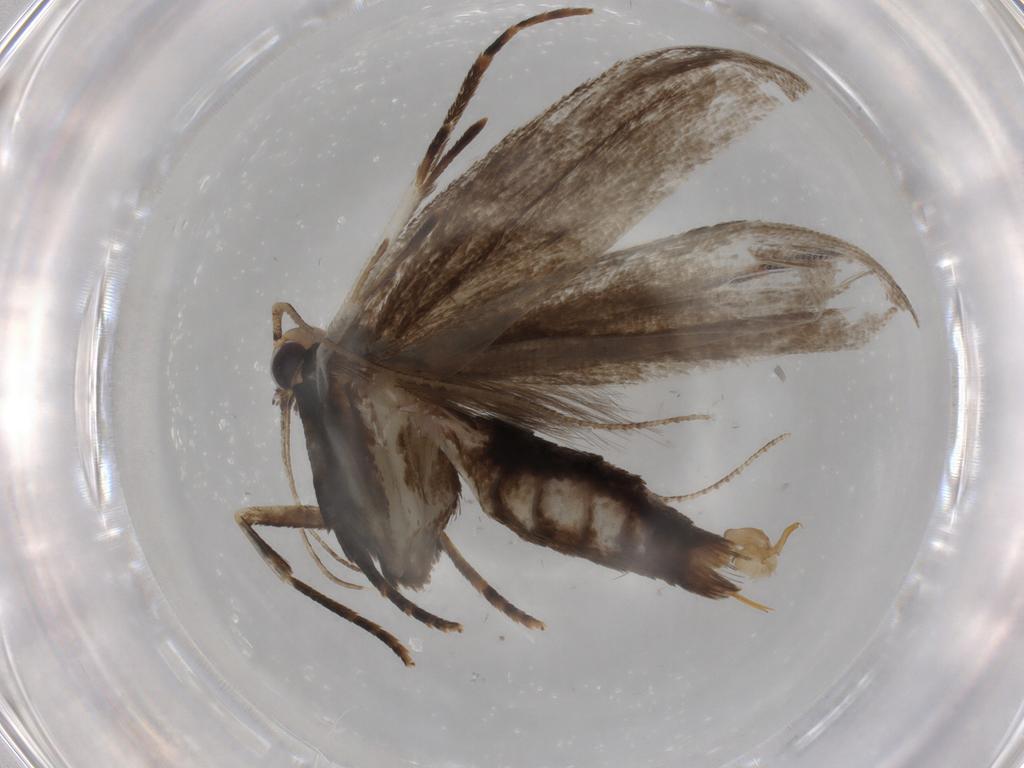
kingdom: Animalia
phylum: Arthropoda
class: Insecta
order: Lepidoptera
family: Cosmopterigidae
